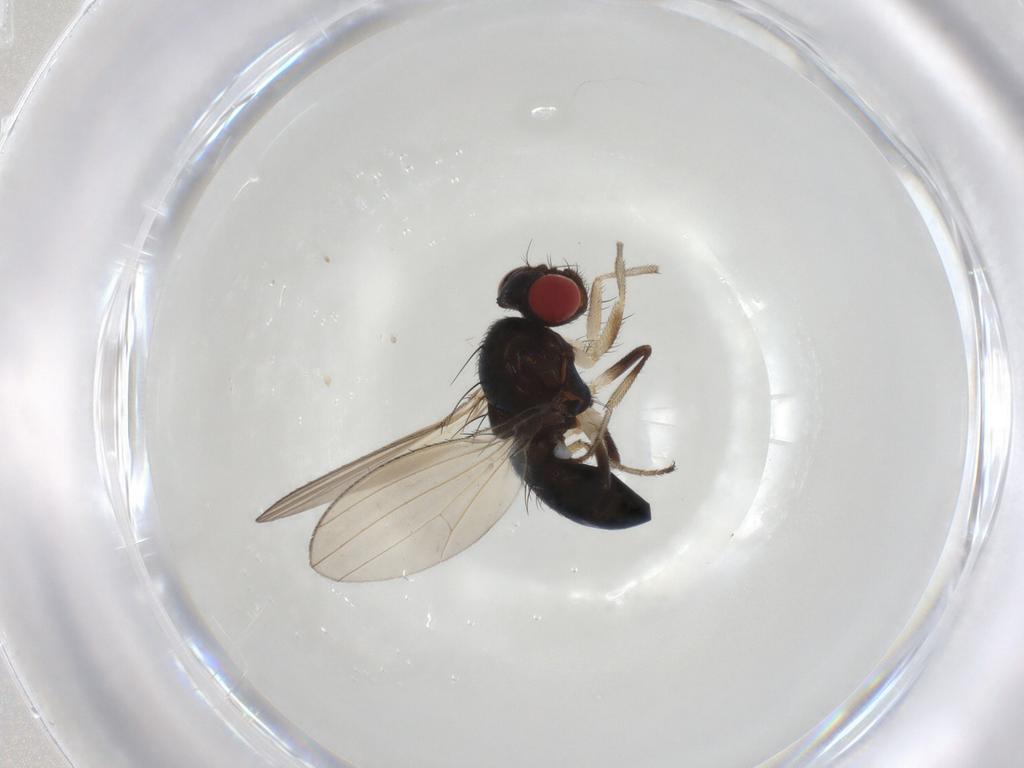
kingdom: Animalia
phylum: Arthropoda
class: Insecta
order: Diptera
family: Camillidae
